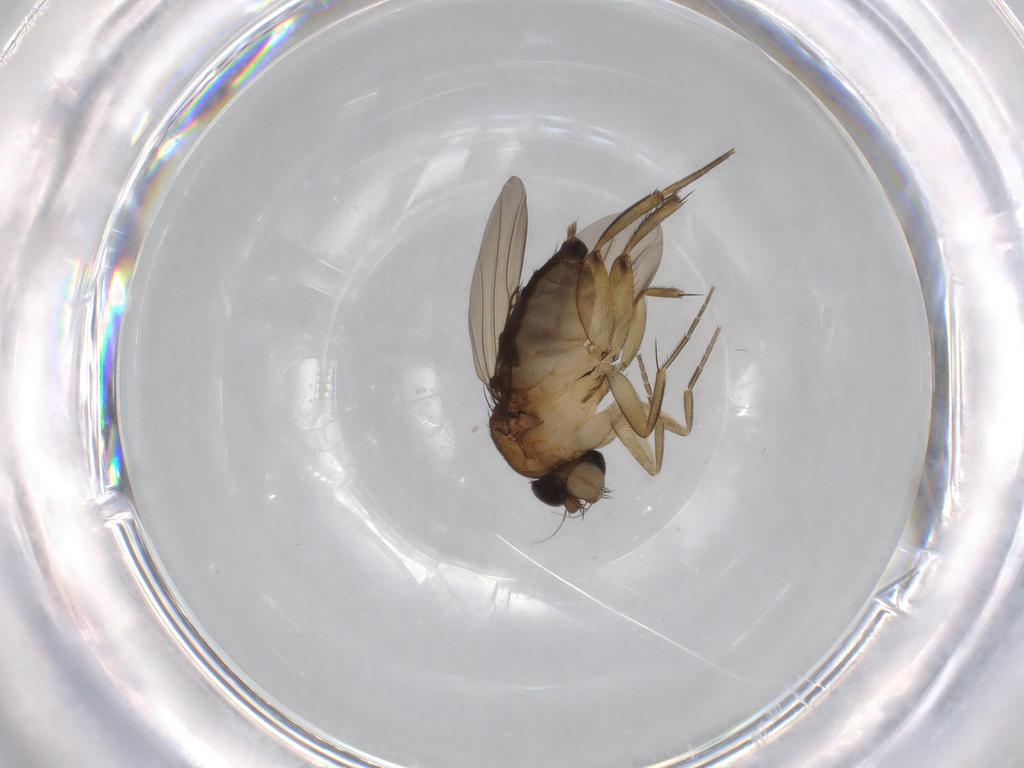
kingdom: Animalia
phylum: Arthropoda
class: Insecta
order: Diptera
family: Phoridae
